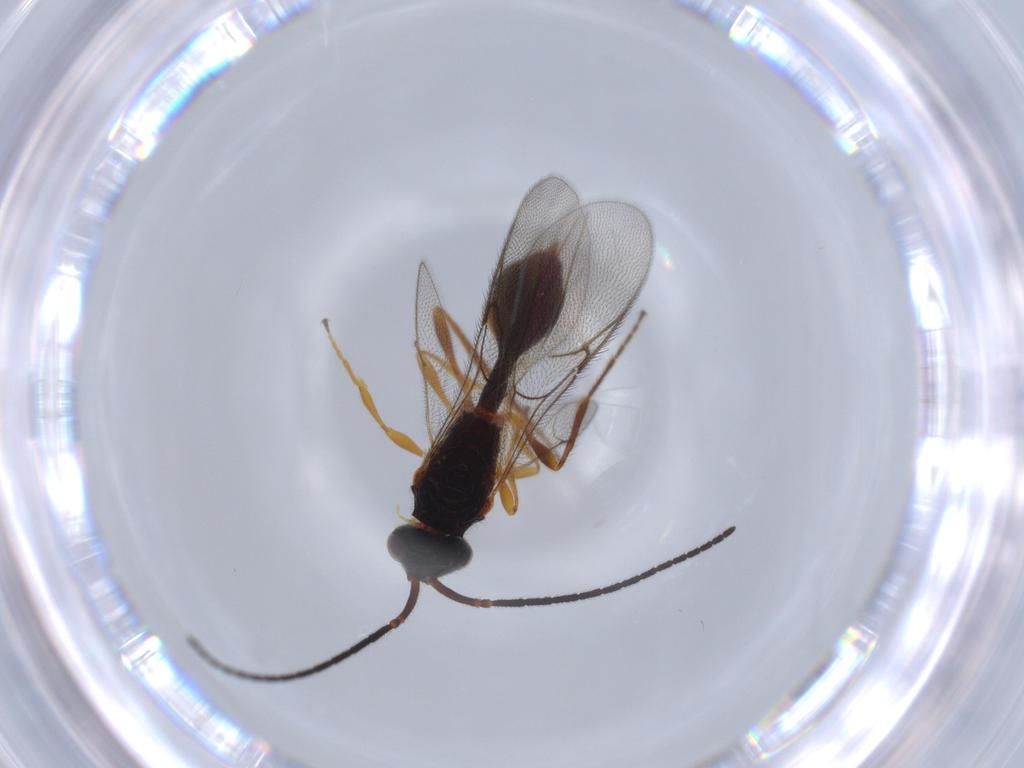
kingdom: Animalia
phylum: Arthropoda
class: Insecta
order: Hymenoptera
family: Diapriidae
